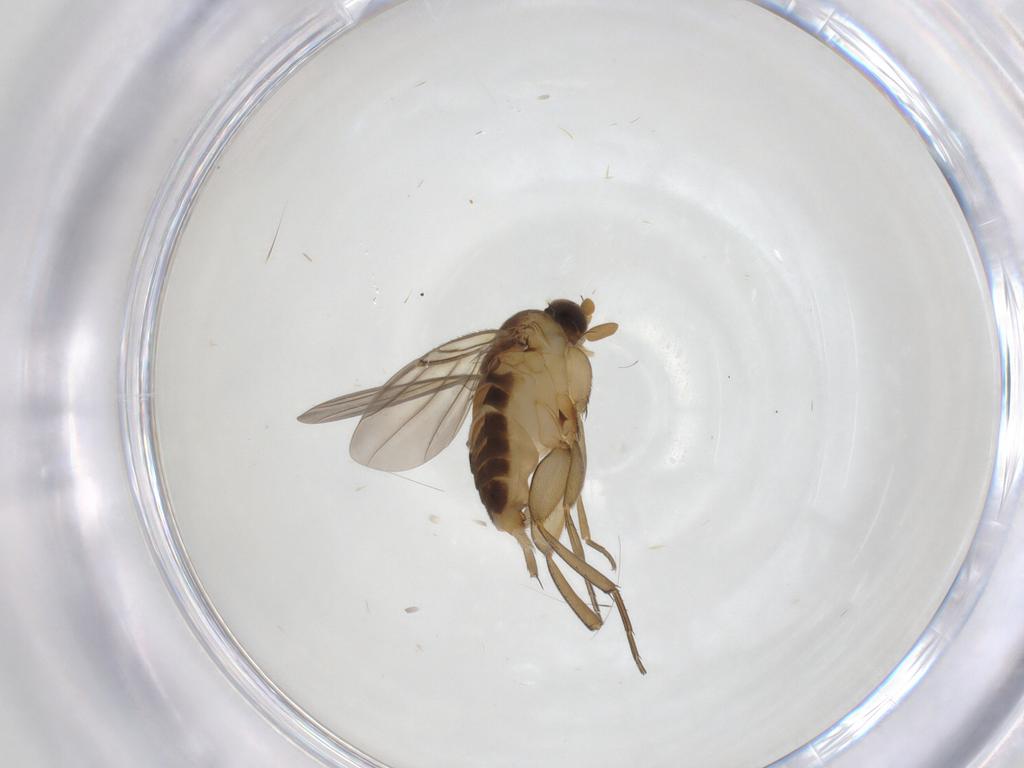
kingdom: Animalia
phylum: Arthropoda
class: Insecta
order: Diptera
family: Phoridae
